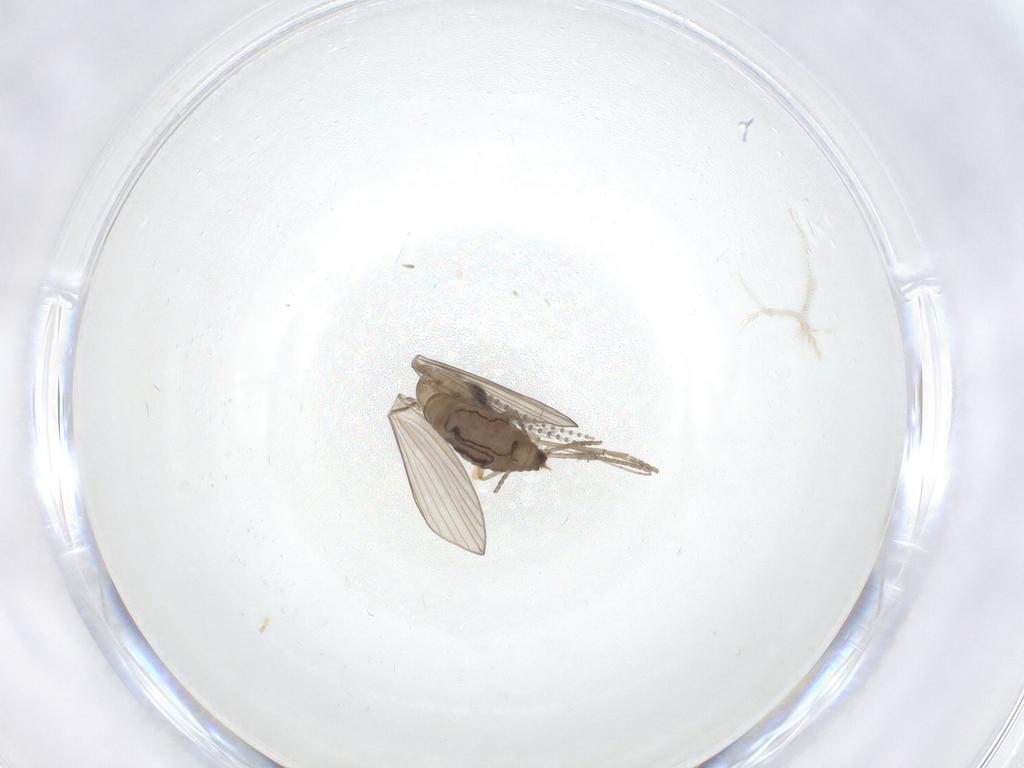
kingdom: Animalia
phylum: Arthropoda
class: Insecta
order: Diptera
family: Psychodidae
